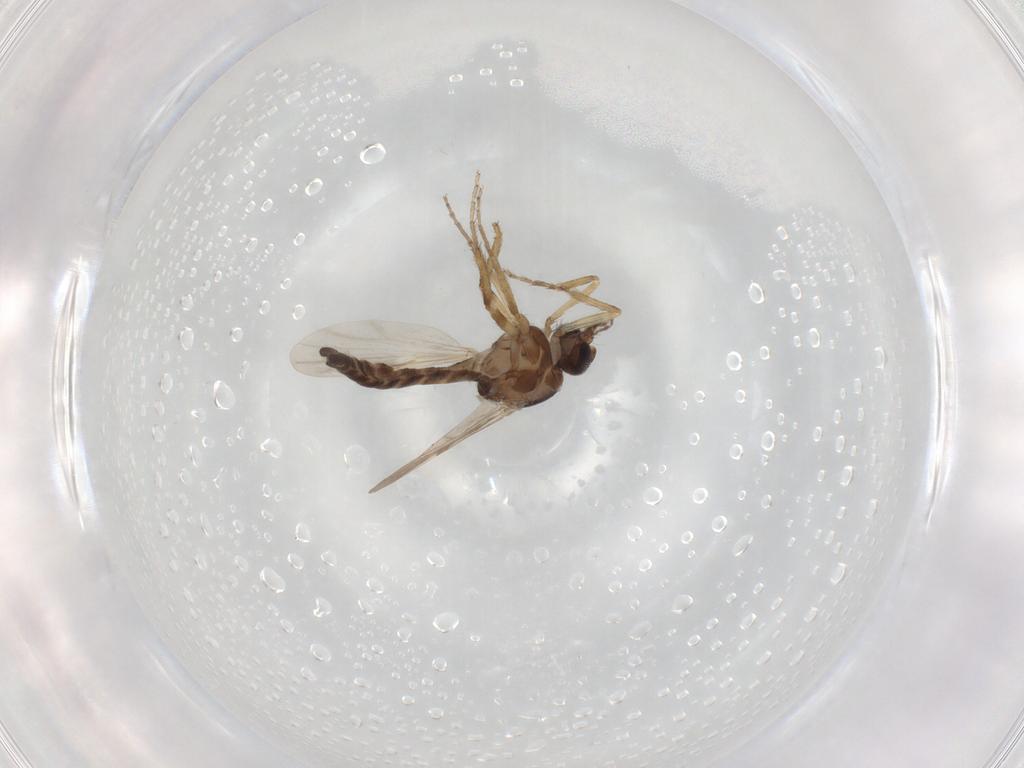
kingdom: Animalia
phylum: Arthropoda
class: Insecta
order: Diptera
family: Ceratopogonidae
